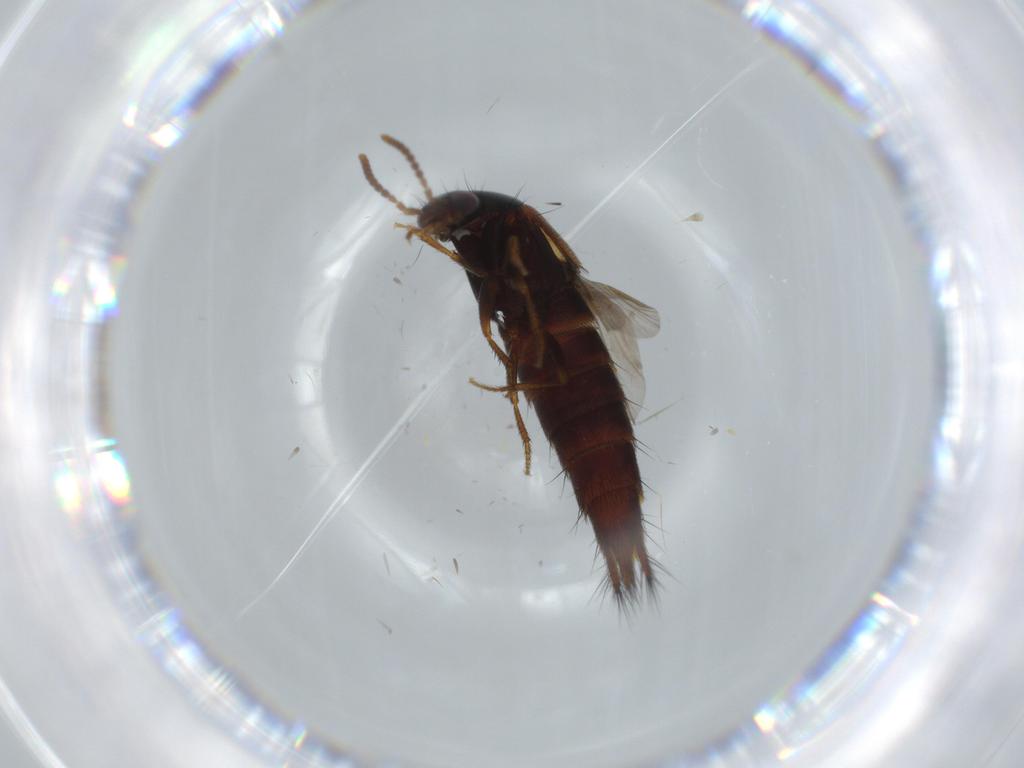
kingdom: Animalia
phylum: Arthropoda
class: Insecta
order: Coleoptera
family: Staphylinidae
